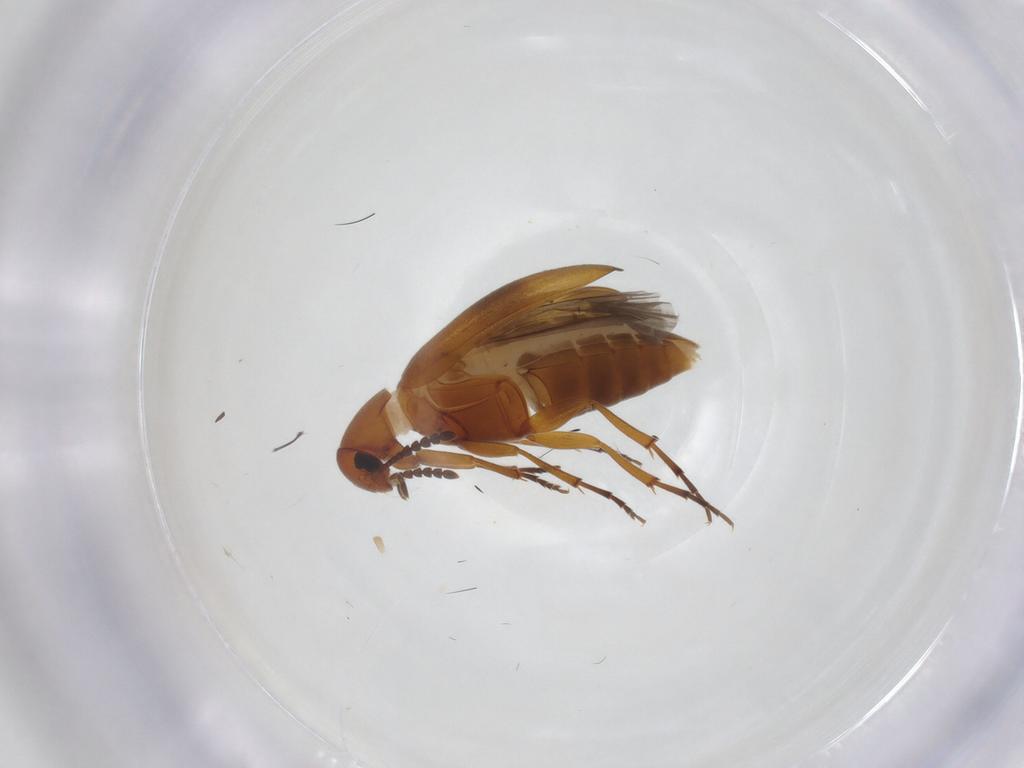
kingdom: Animalia
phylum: Arthropoda
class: Insecta
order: Coleoptera
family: Scraptiidae
